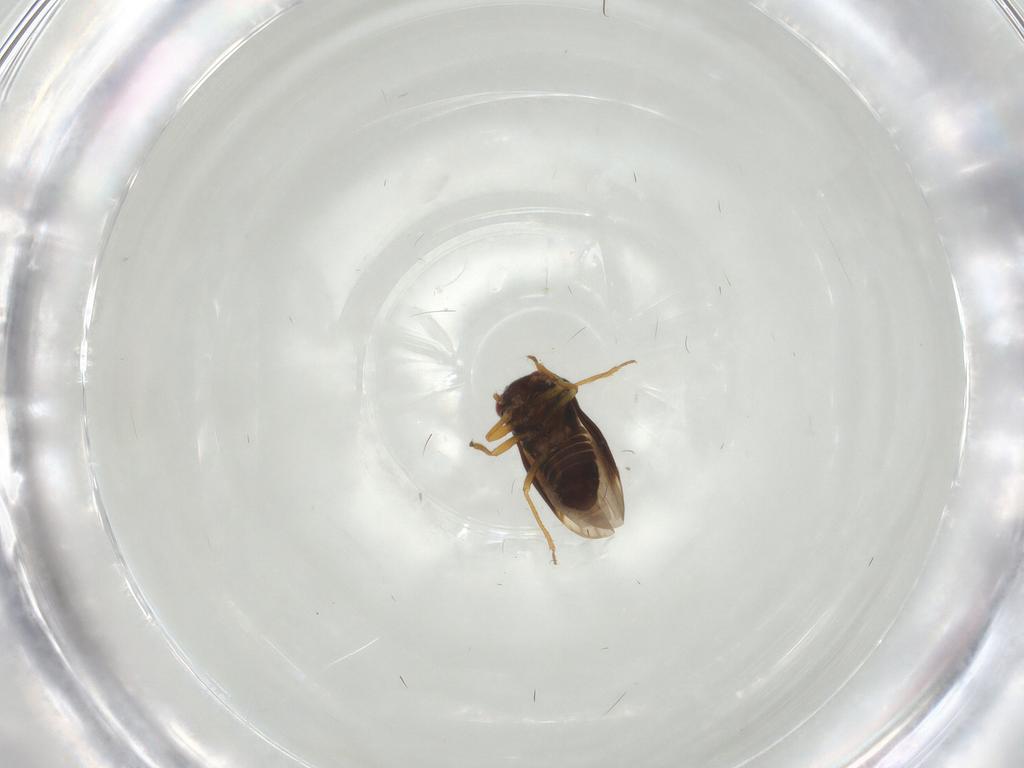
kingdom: Animalia
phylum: Arthropoda
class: Insecta
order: Hemiptera
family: Schizopteridae
